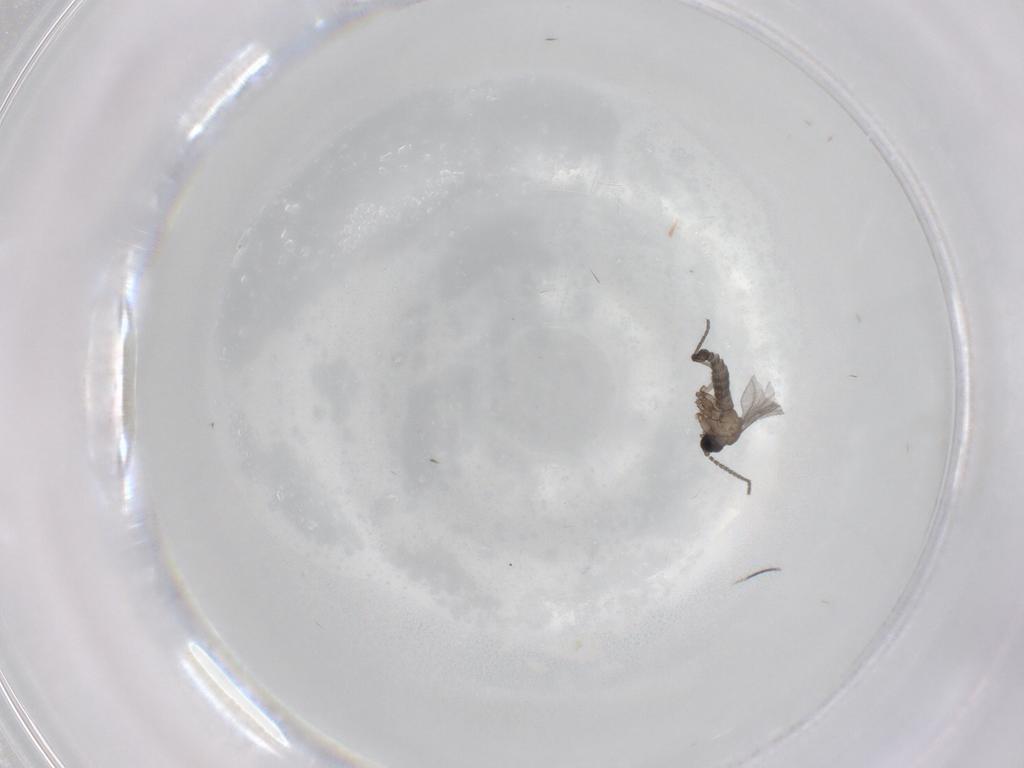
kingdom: Animalia
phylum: Arthropoda
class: Insecta
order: Diptera
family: Sciaridae
